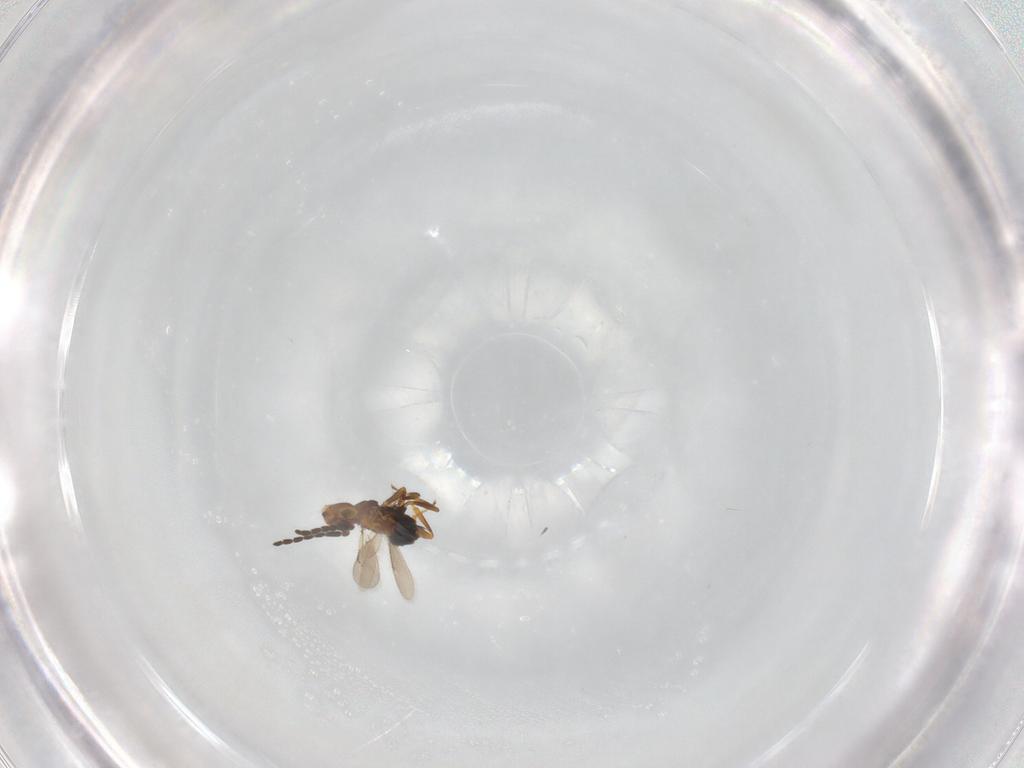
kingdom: Animalia
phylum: Arthropoda
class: Insecta
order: Hymenoptera
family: Encyrtidae
